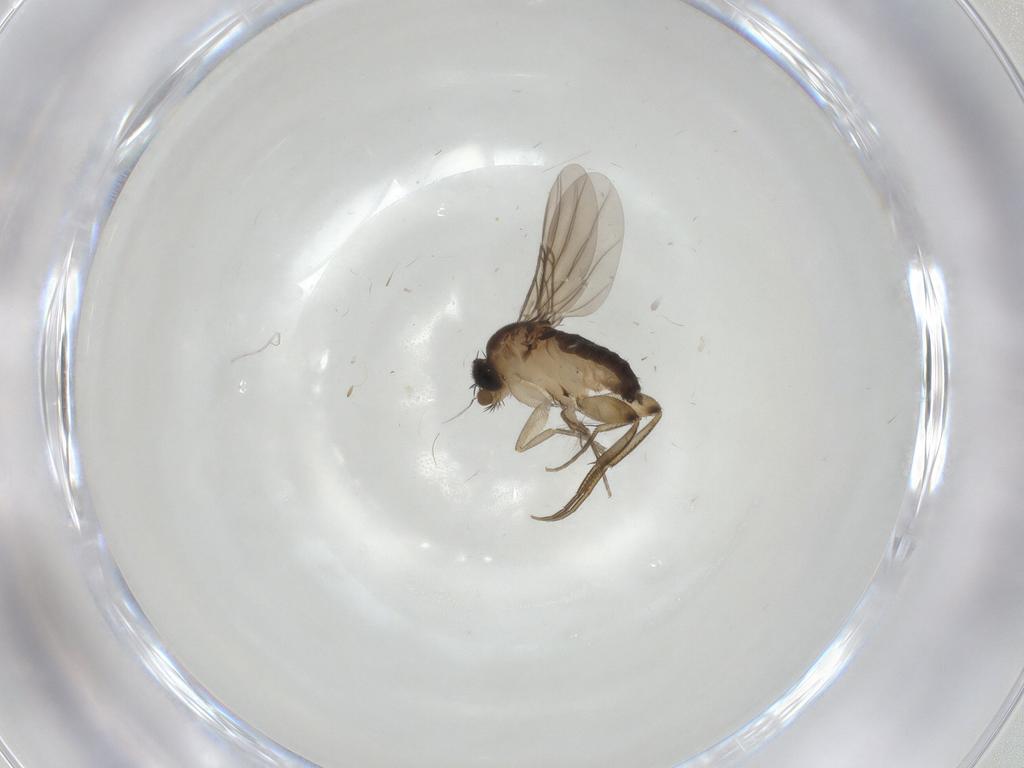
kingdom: Animalia
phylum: Arthropoda
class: Insecta
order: Diptera
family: Phoridae
